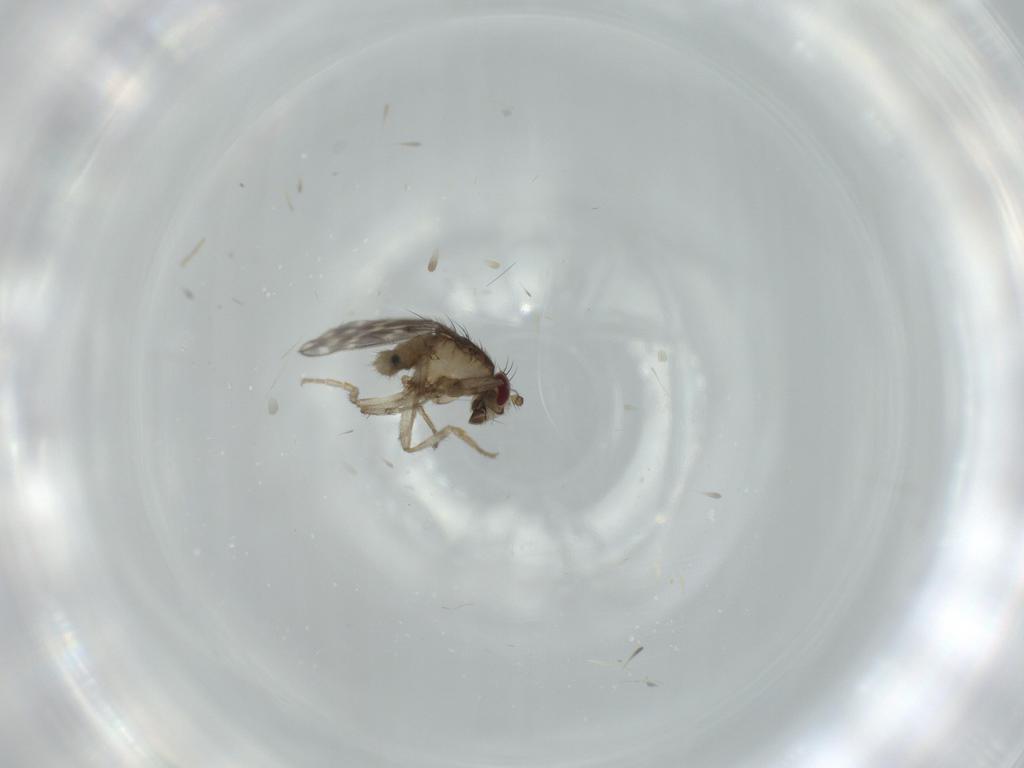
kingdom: Animalia
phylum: Arthropoda
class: Insecta
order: Diptera
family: Sphaeroceridae
